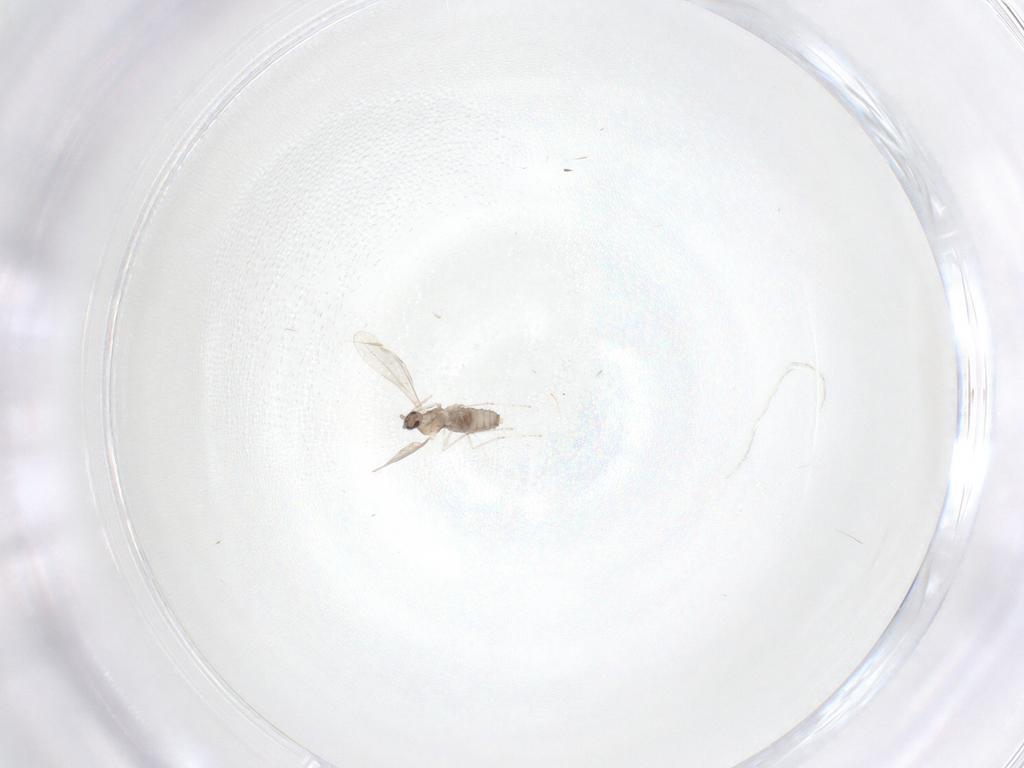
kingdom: Animalia
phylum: Arthropoda
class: Insecta
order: Diptera
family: Cecidomyiidae
